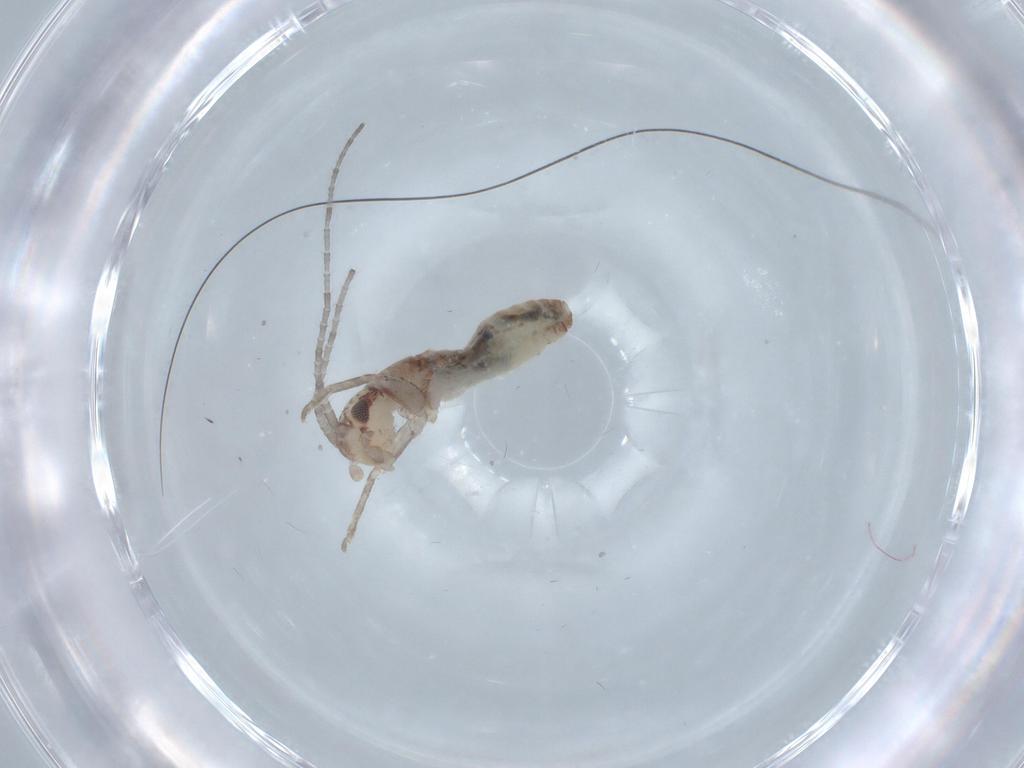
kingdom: Animalia
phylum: Arthropoda
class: Insecta
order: Orthoptera
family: Mogoplistidae
